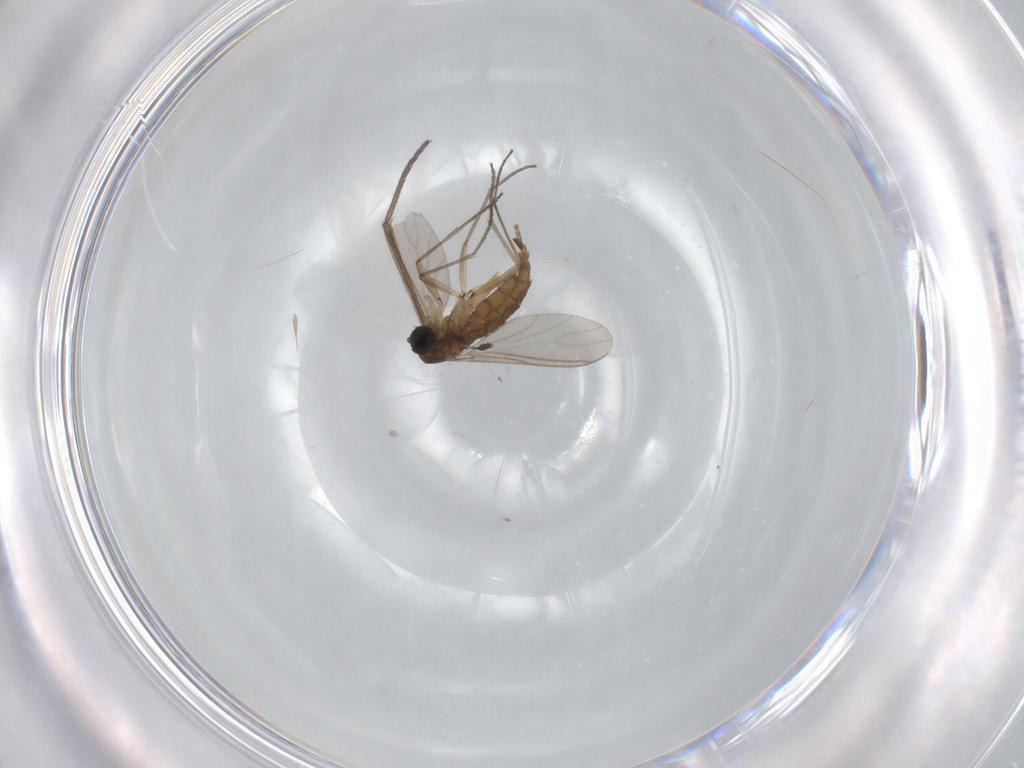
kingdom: Animalia
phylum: Arthropoda
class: Insecta
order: Diptera
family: Sciaridae
